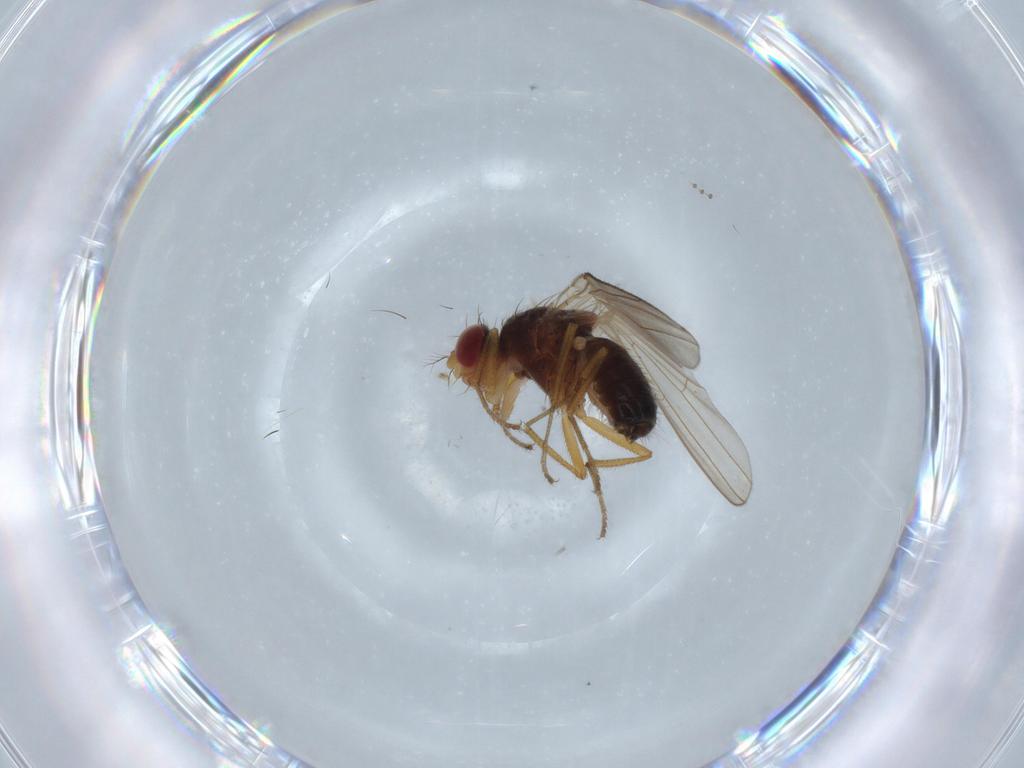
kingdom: Animalia
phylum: Arthropoda
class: Insecta
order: Diptera
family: Drosophilidae
